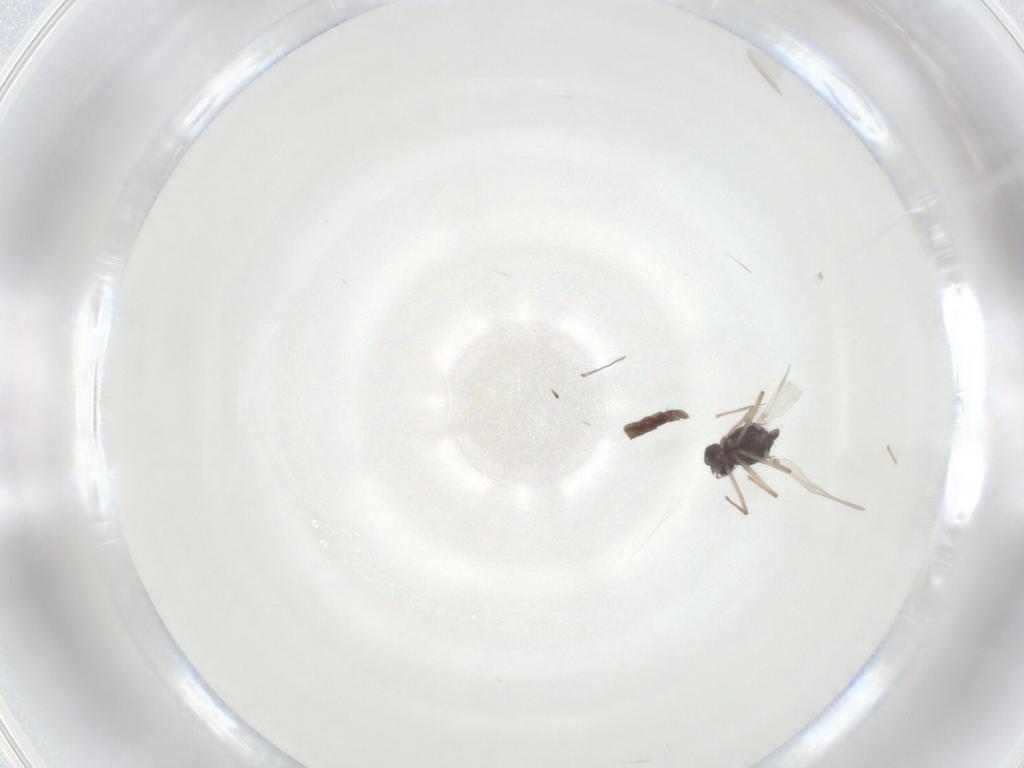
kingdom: Animalia
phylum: Arthropoda
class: Insecta
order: Diptera
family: Chironomidae
